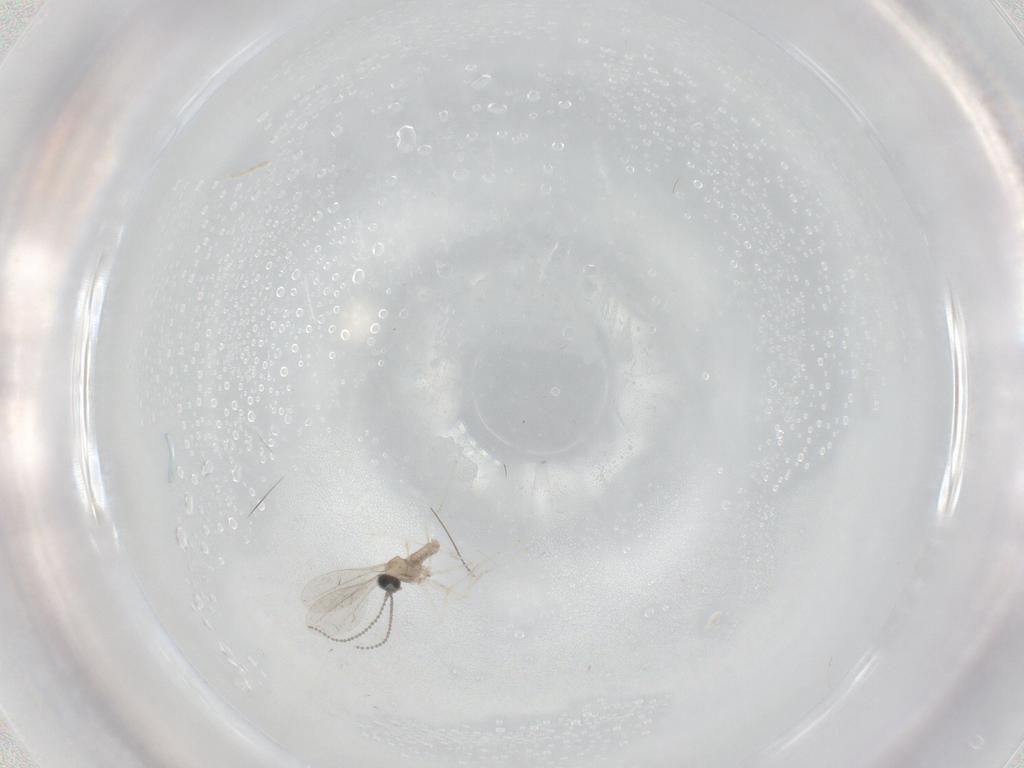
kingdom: Animalia
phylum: Arthropoda
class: Insecta
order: Diptera
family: Cecidomyiidae
